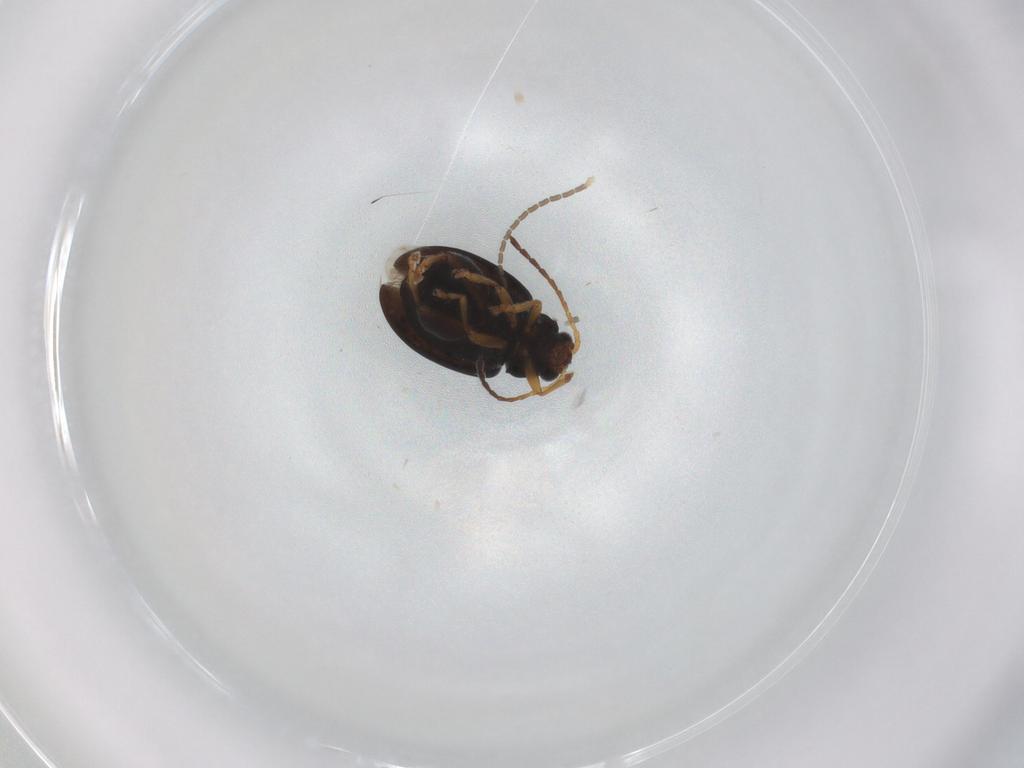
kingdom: Animalia
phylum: Arthropoda
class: Insecta
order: Coleoptera
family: Chrysomelidae
